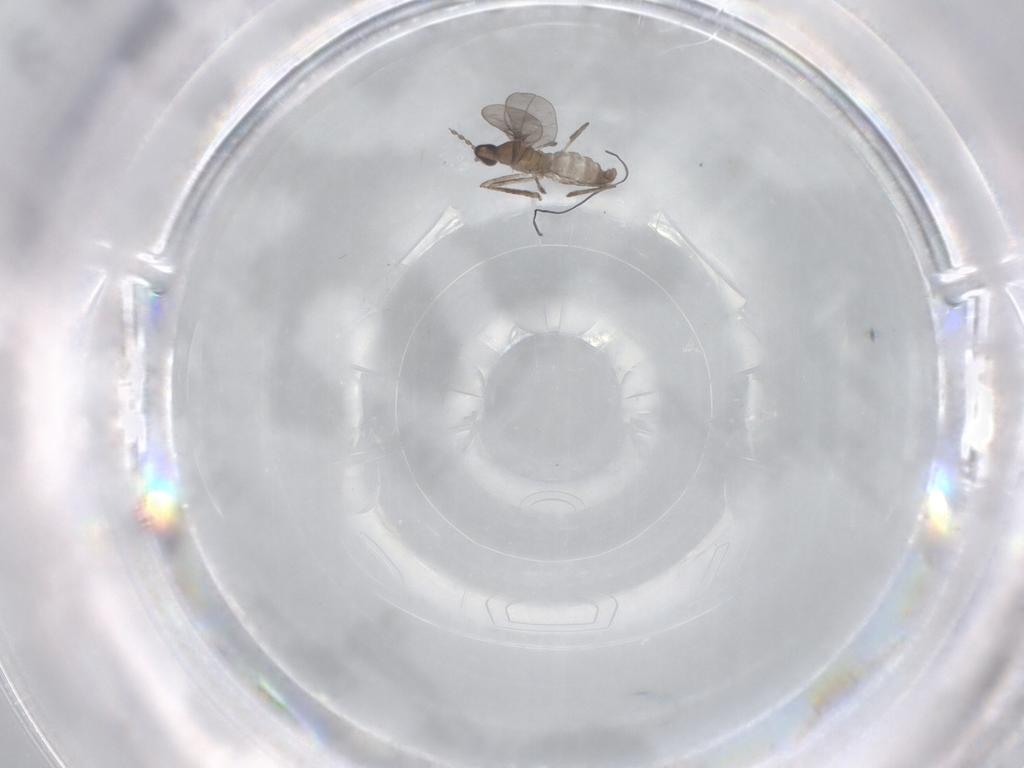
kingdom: Animalia
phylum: Arthropoda
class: Insecta
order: Diptera
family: Cecidomyiidae
